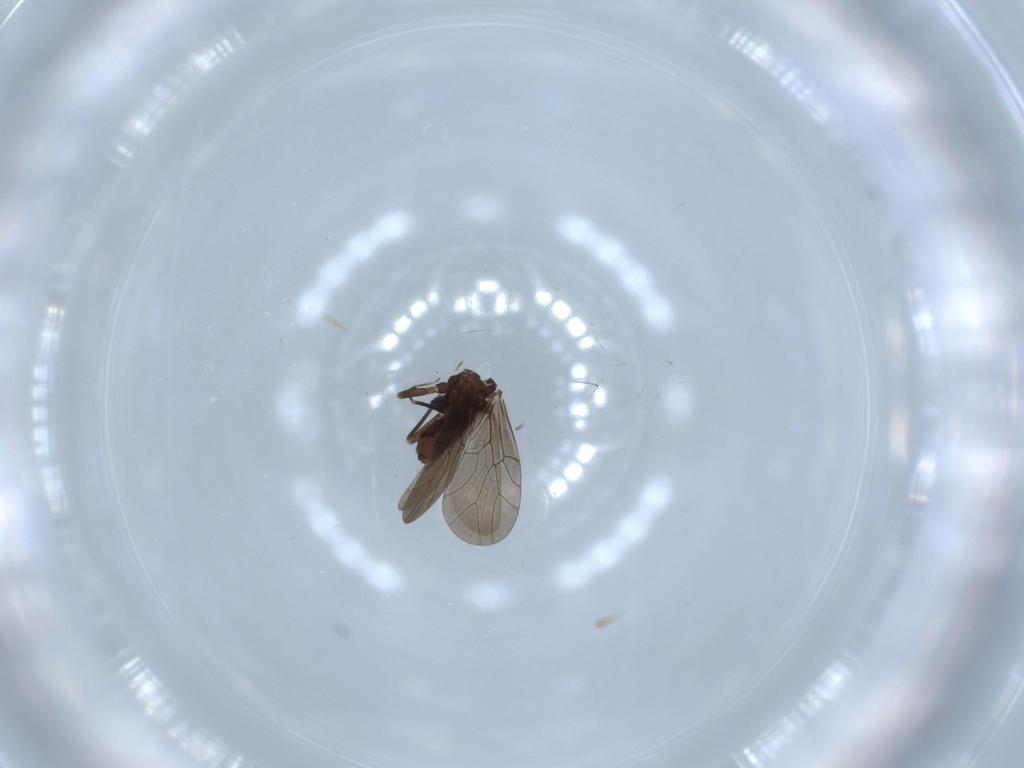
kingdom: Animalia
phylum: Arthropoda
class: Insecta
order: Psocodea
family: Lepidopsocidae
